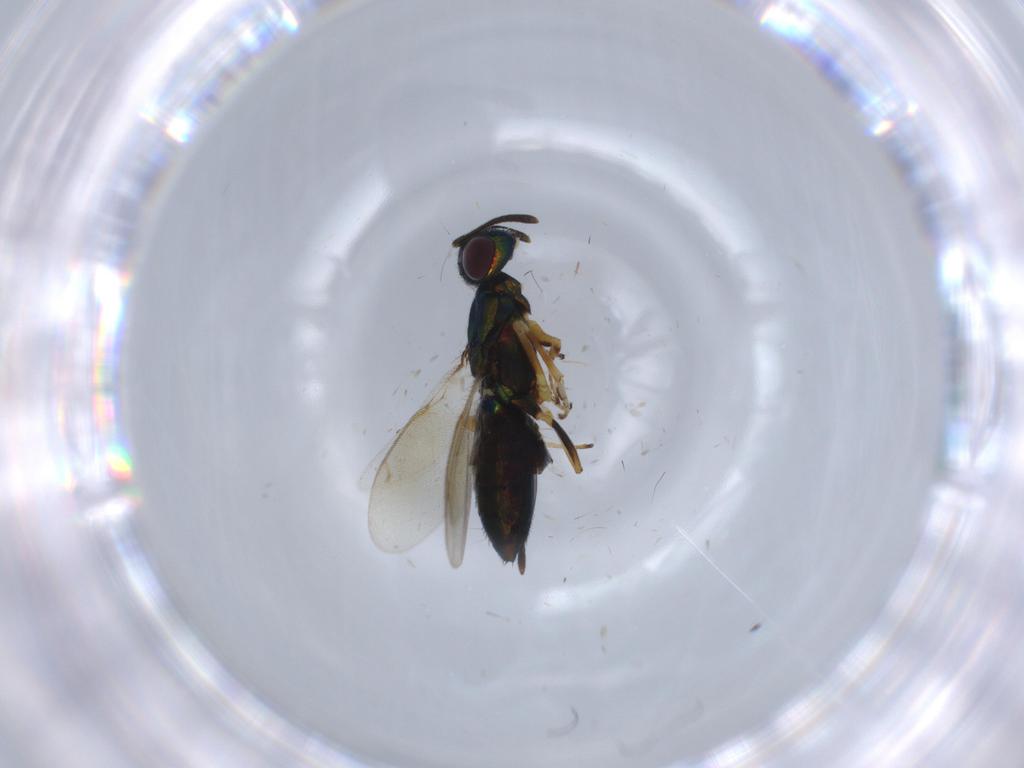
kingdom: Animalia
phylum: Arthropoda
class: Insecta
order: Hymenoptera
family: Eupelmidae
